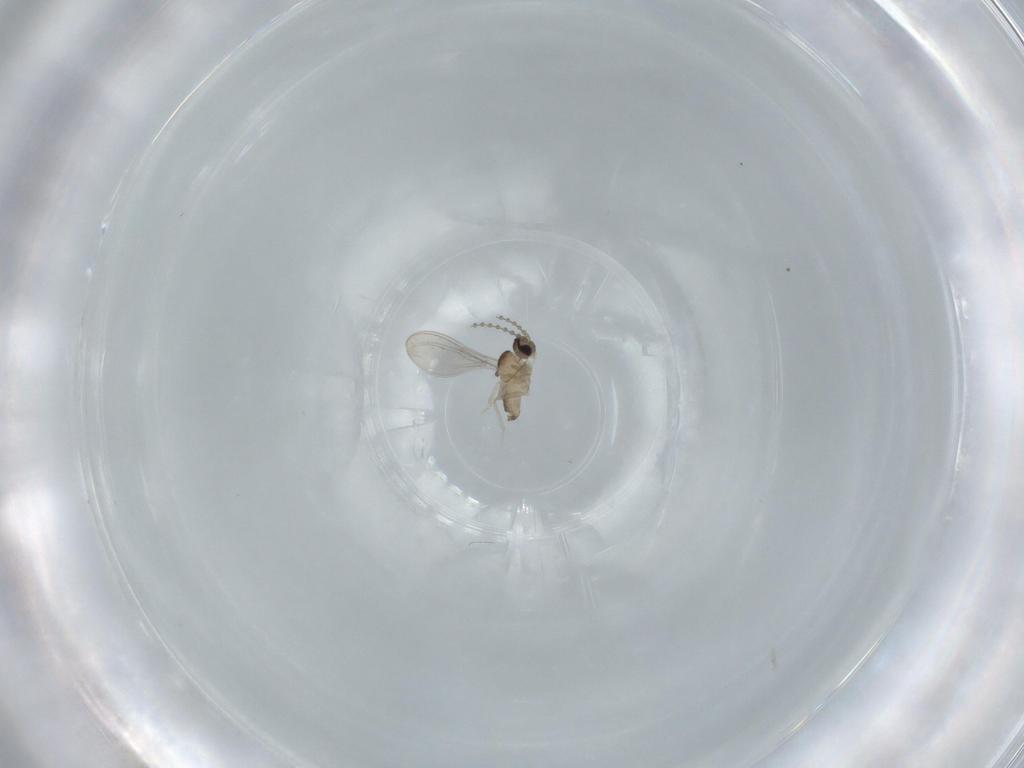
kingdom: Animalia
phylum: Arthropoda
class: Insecta
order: Diptera
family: Cecidomyiidae
